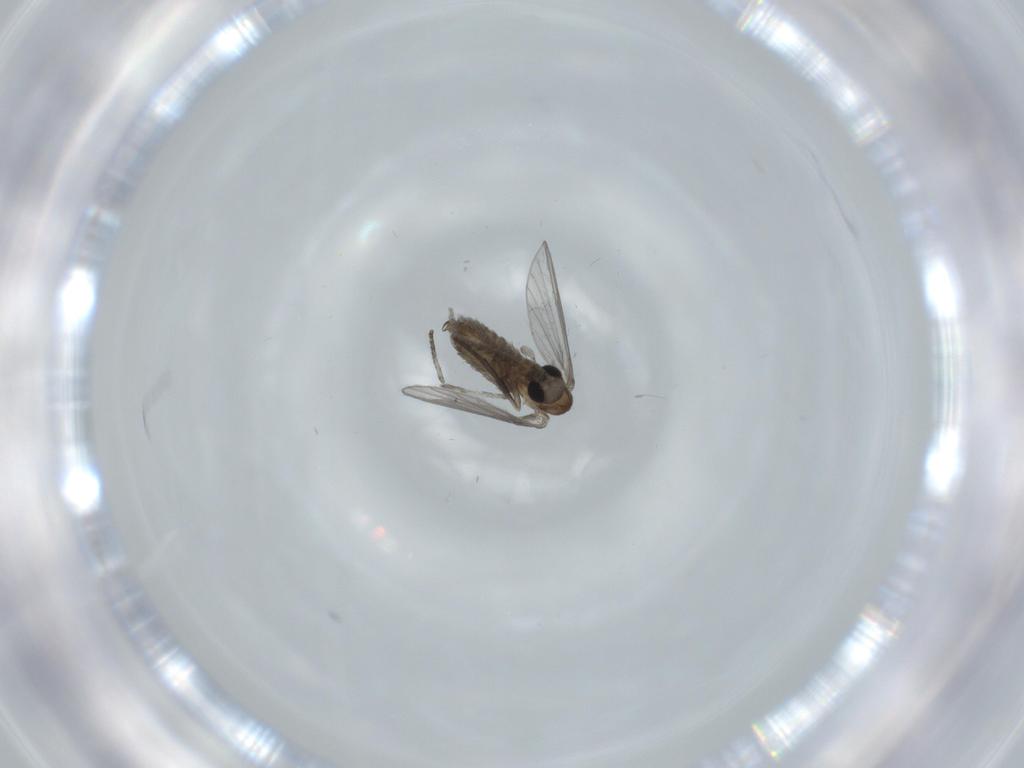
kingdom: Animalia
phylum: Arthropoda
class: Insecta
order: Diptera
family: Psychodidae
